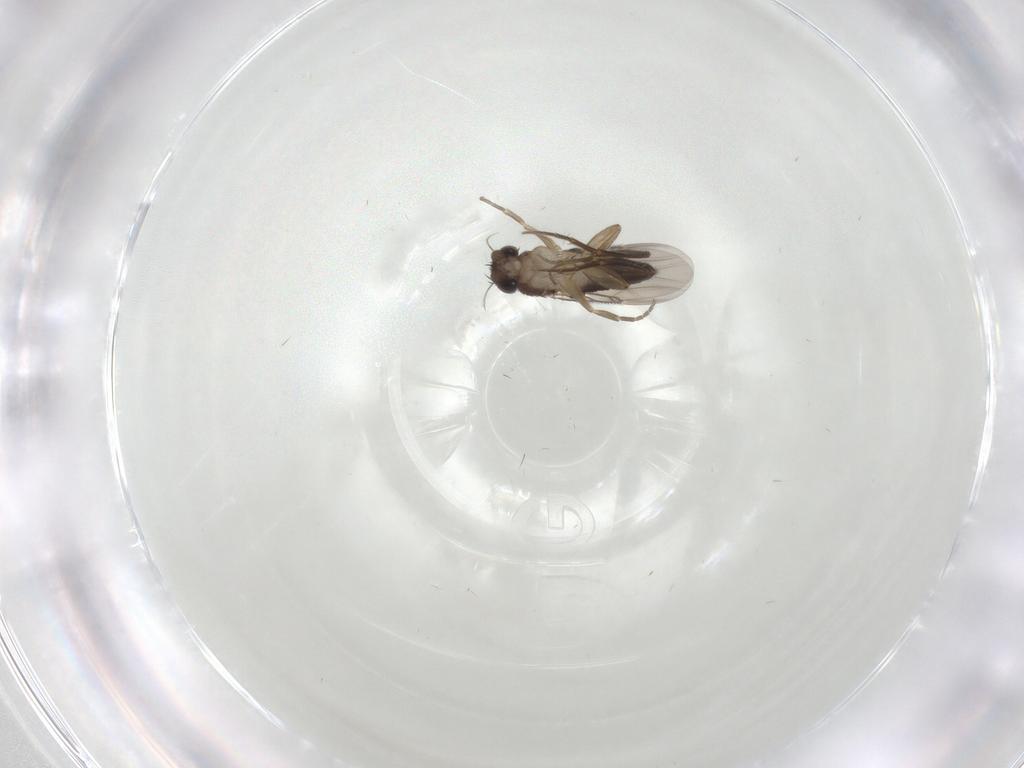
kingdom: Animalia
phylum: Arthropoda
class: Insecta
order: Diptera
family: Phoridae
